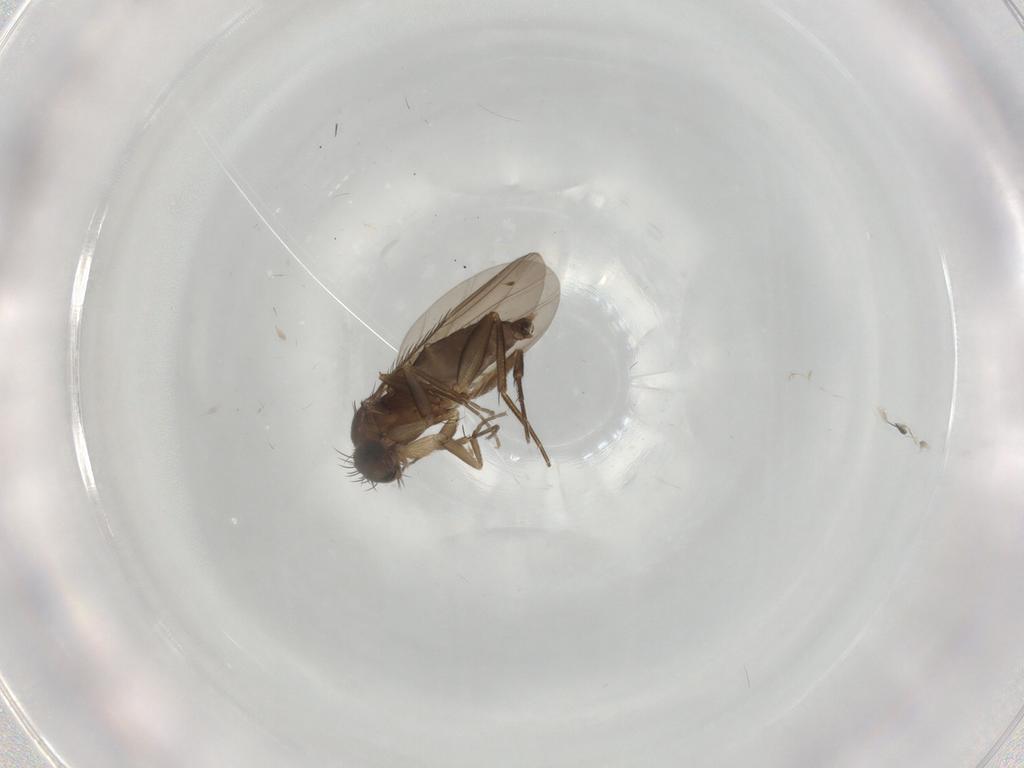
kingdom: Animalia
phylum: Arthropoda
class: Insecta
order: Diptera
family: Phoridae
